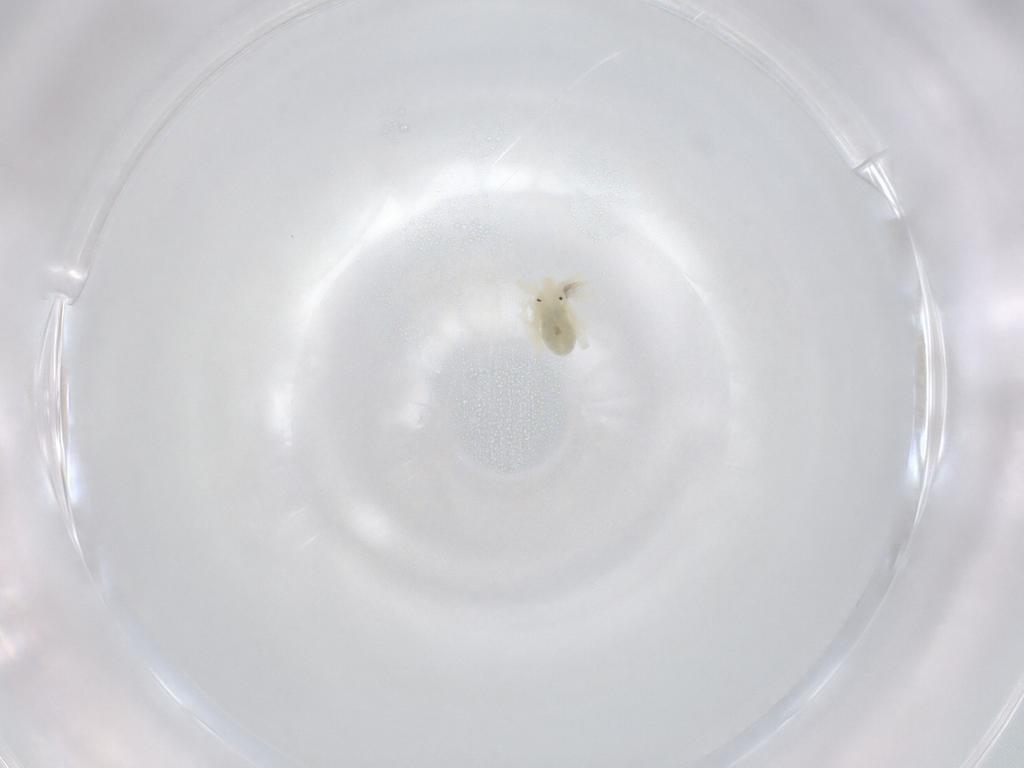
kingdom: Animalia
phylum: Arthropoda
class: Arachnida
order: Trombidiformes
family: Anystidae
